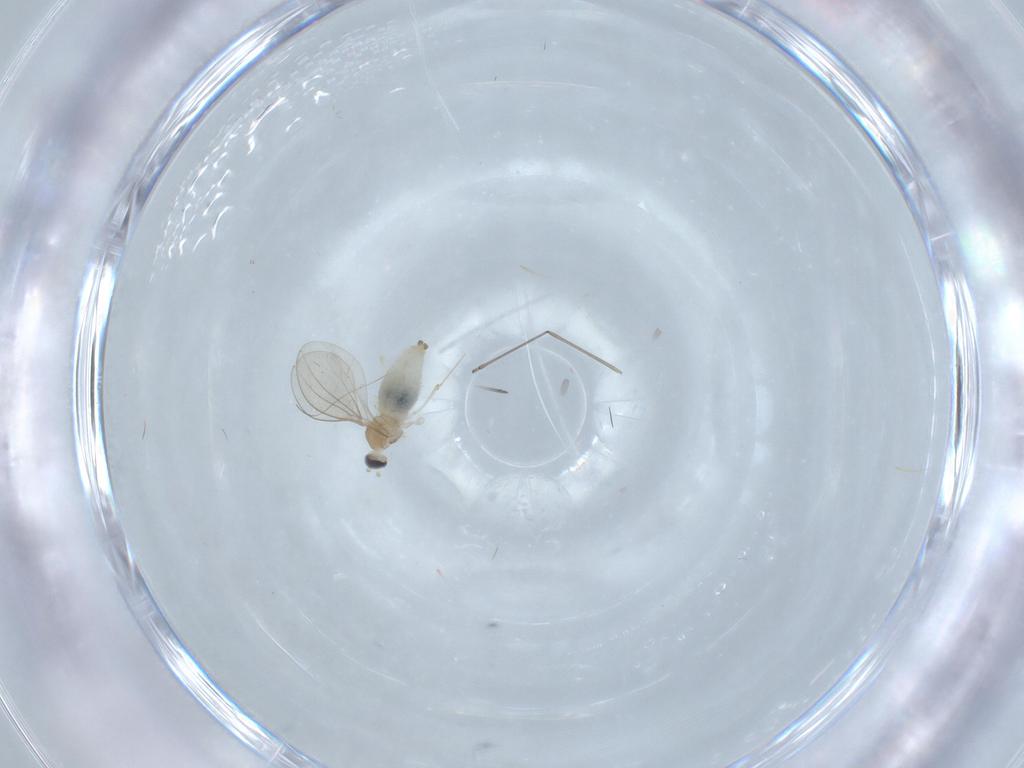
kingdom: Animalia
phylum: Arthropoda
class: Insecta
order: Diptera
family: Cecidomyiidae
